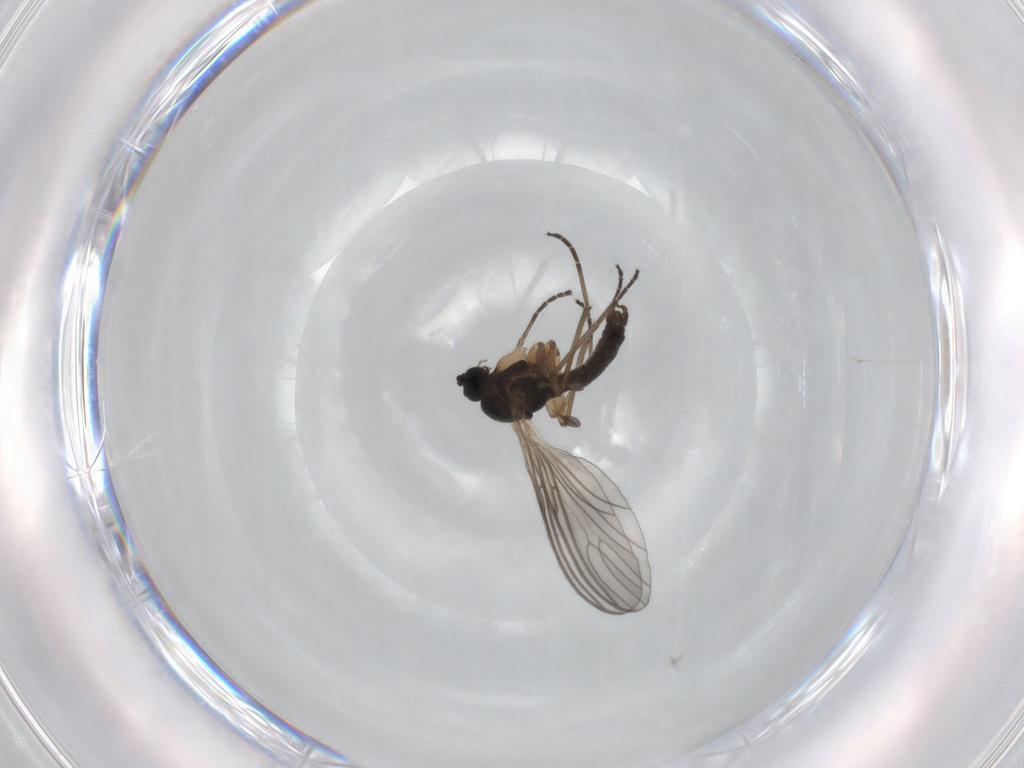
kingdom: Animalia
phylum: Arthropoda
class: Insecta
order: Diptera
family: Sciaridae
